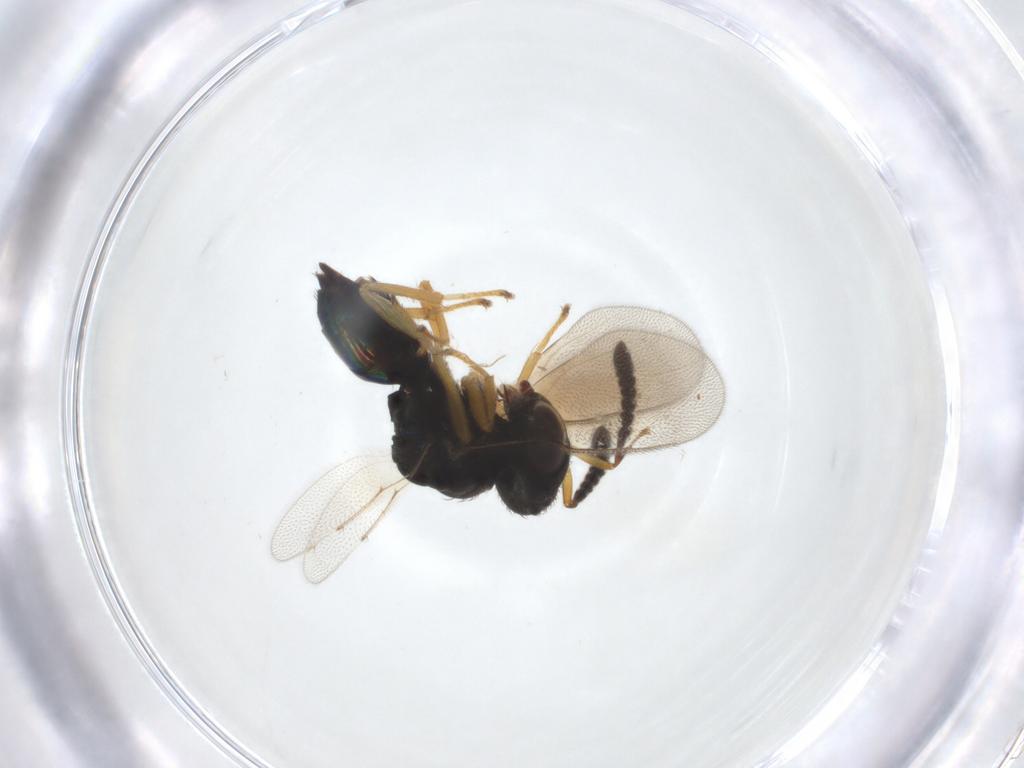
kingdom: Animalia
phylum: Arthropoda
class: Insecta
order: Hymenoptera
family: Pteromalidae
